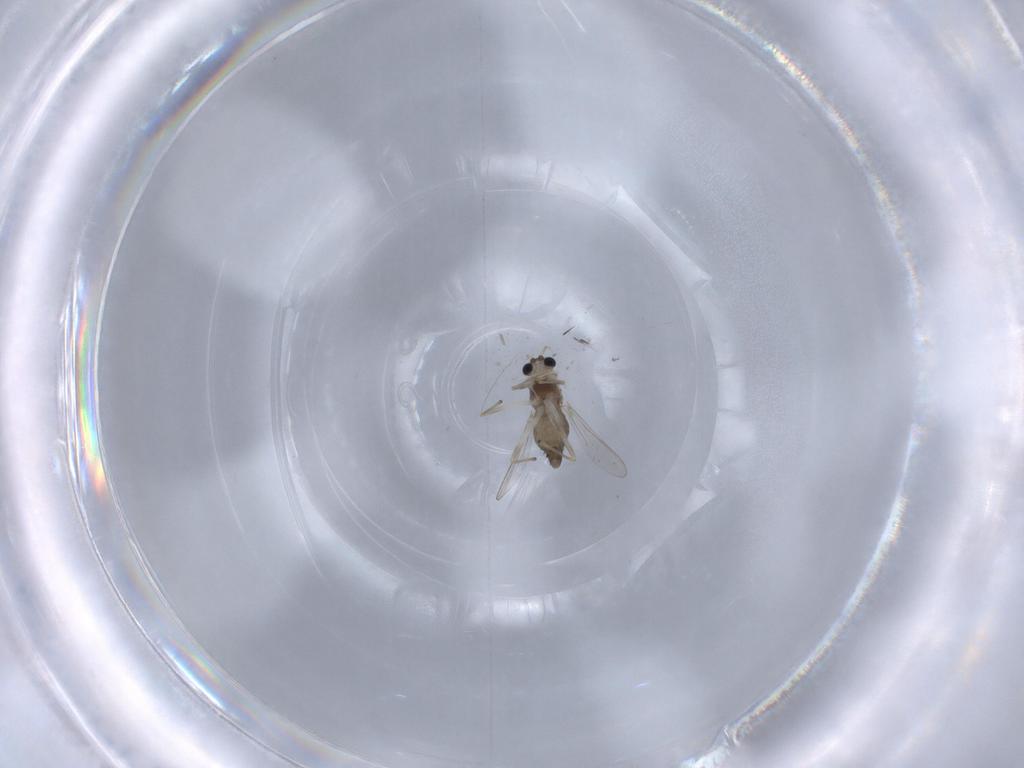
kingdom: Animalia
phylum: Arthropoda
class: Insecta
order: Diptera
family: Chironomidae
